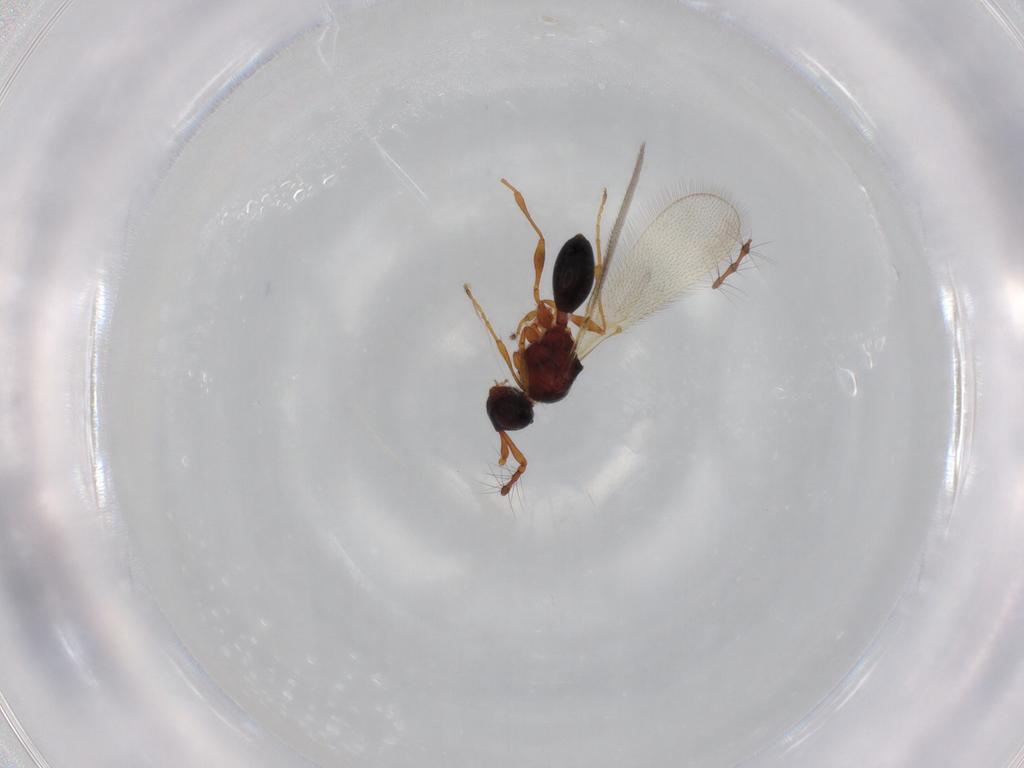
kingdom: Animalia
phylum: Arthropoda
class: Insecta
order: Hymenoptera
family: Diapriidae
